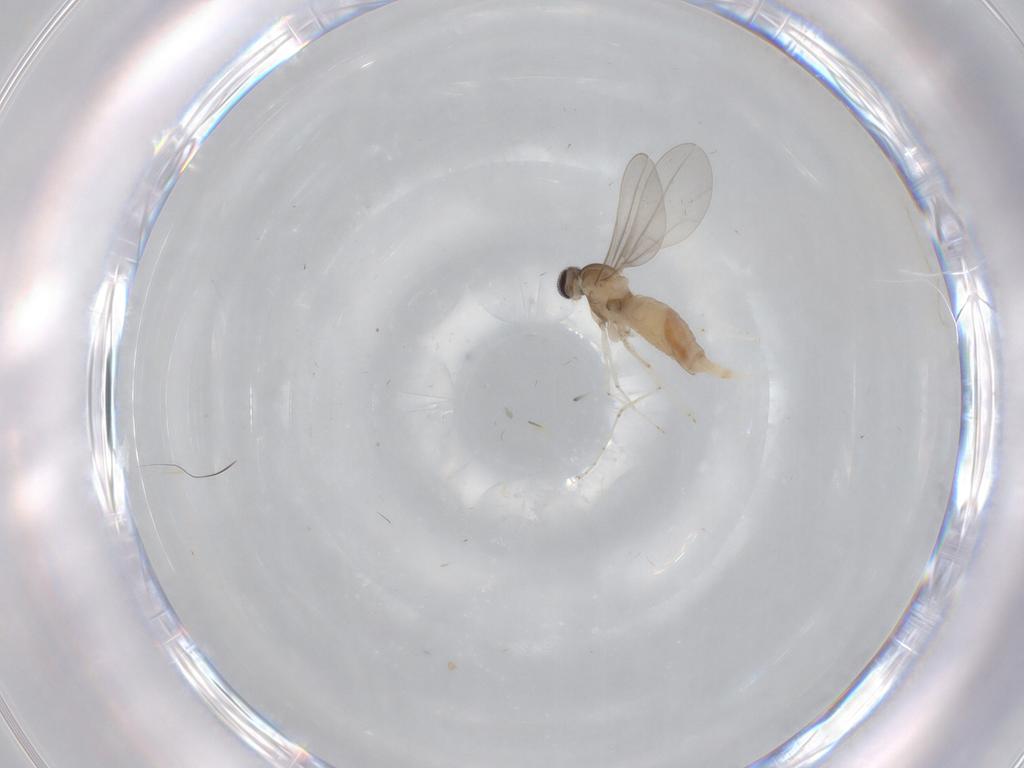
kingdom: Animalia
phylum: Arthropoda
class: Insecta
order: Diptera
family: Cecidomyiidae
